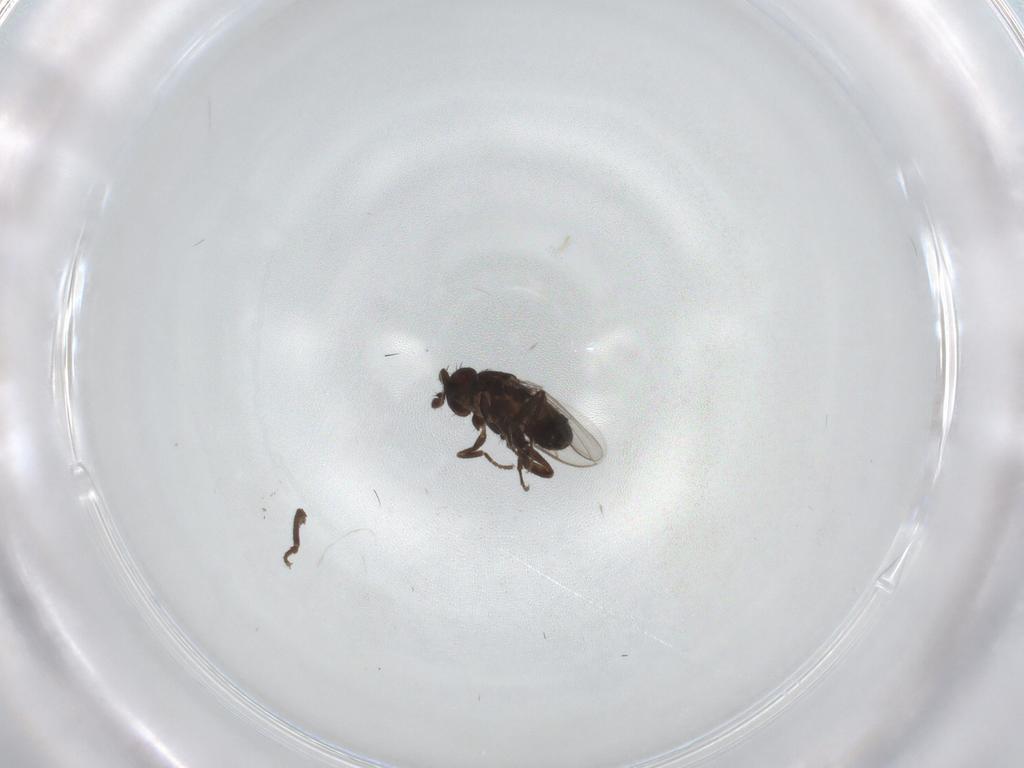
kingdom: Animalia
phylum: Arthropoda
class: Insecta
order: Diptera
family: Sphaeroceridae
